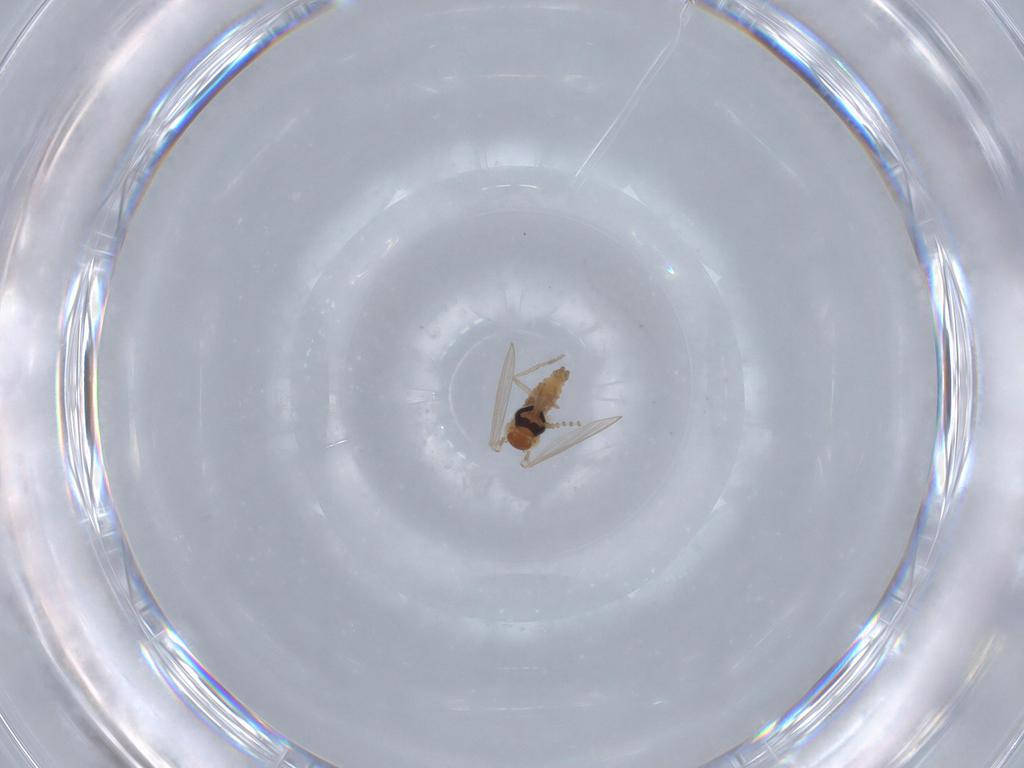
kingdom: Animalia
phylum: Arthropoda
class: Insecta
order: Diptera
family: Psychodidae
